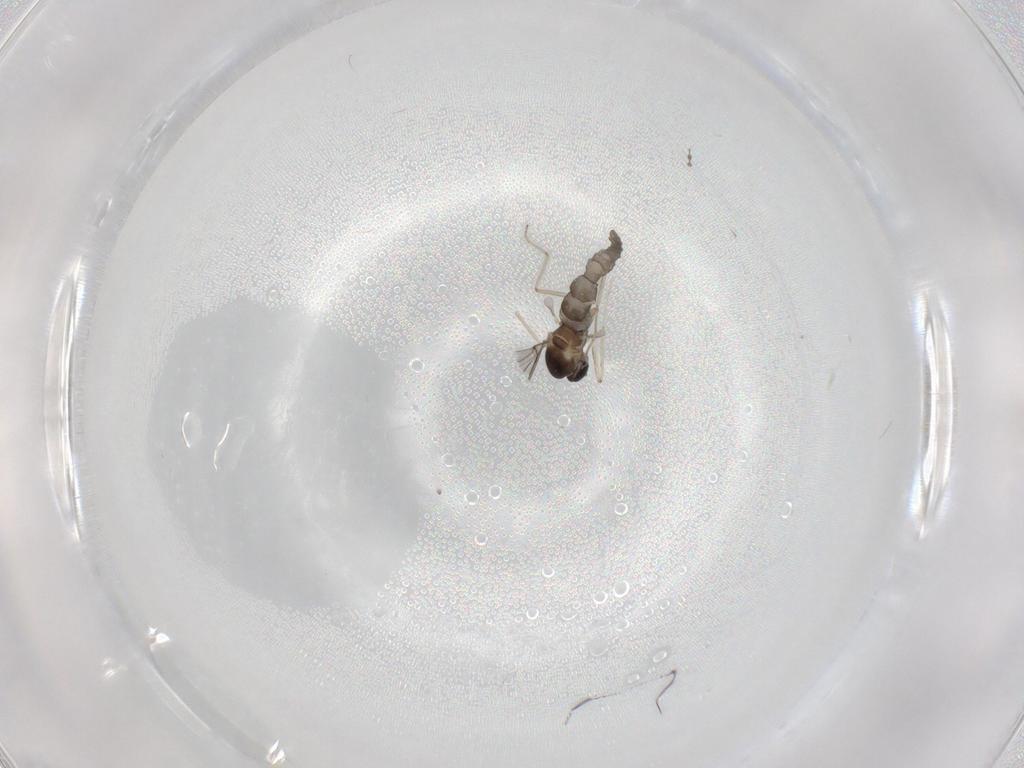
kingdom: Animalia
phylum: Arthropoda
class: Insecta
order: Diptera
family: Cecidomyiidae
